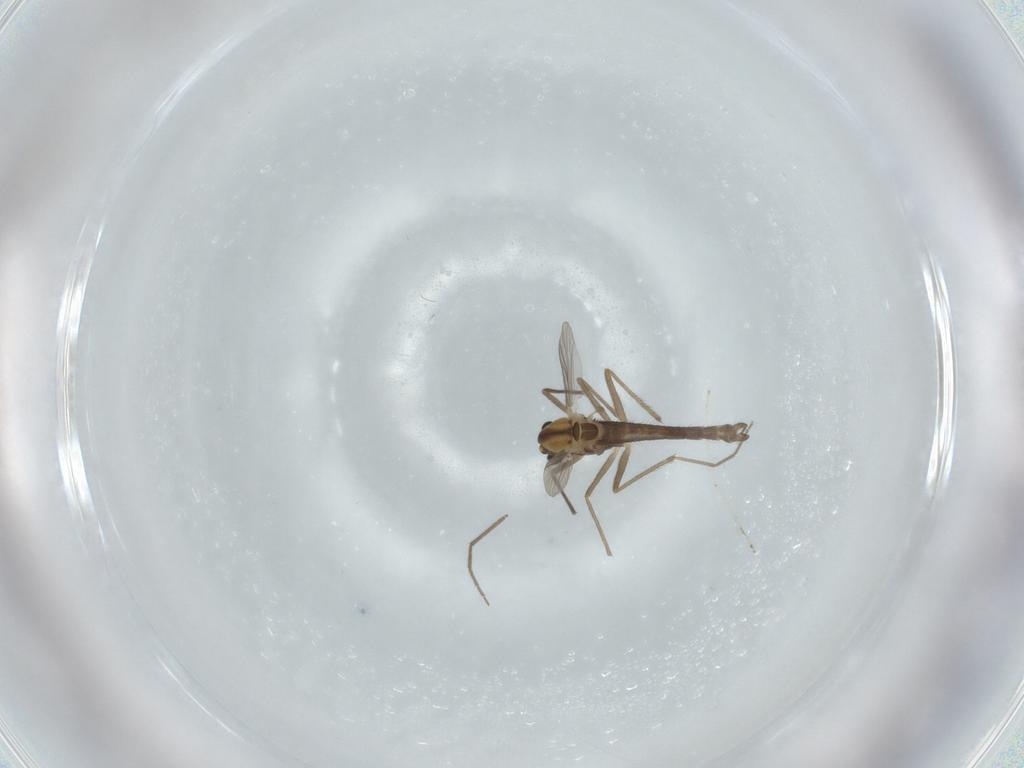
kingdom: Animalia
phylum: Arthropoda
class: Insecta
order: Diptera
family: Chironomidae
